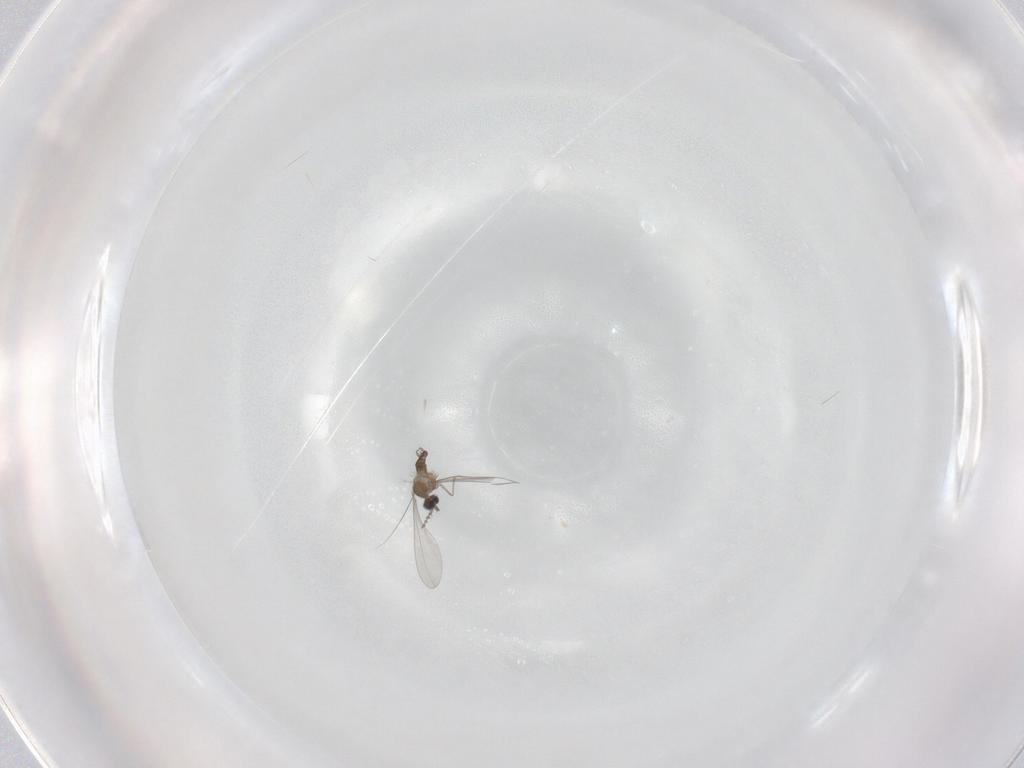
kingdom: Animalia
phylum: Arthropoda
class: Insecta
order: Diptera
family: Cecidomyiidae
